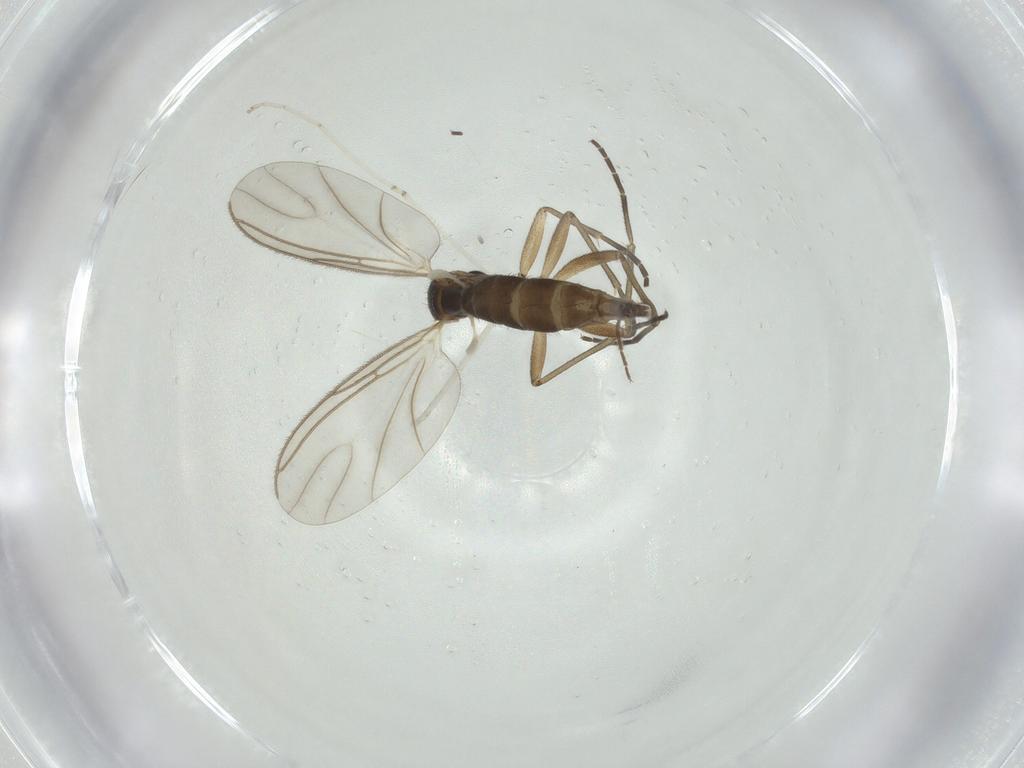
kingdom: Animalia
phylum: Arthropoda
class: Insecta
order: Diptera
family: Cecidomyiidae
